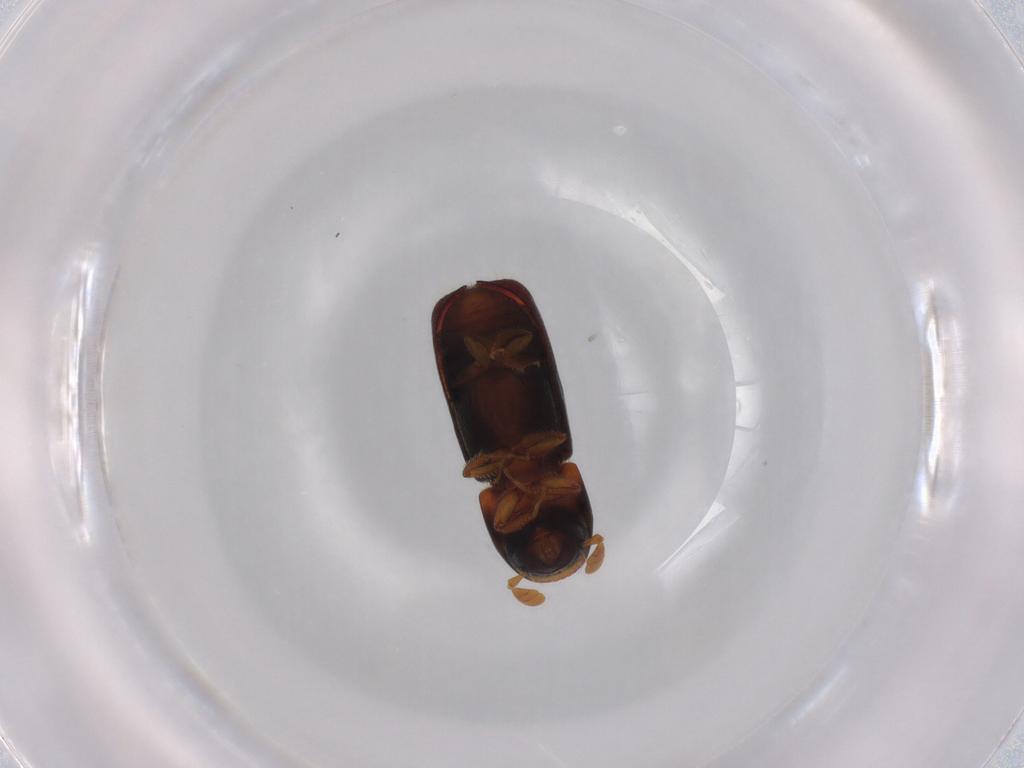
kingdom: Animalia
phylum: Arthropoda
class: Insecta
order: Coleoptera
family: Curculionidae
